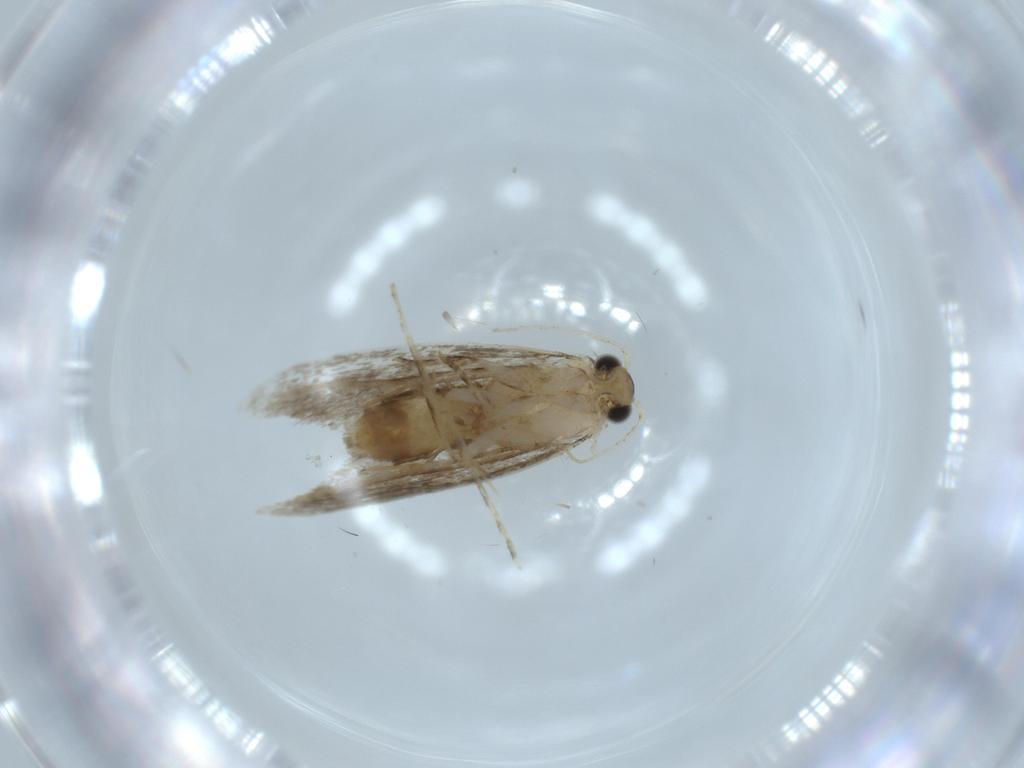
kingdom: Animalia
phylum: Arthropoda
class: Insecta
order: Lepidoptera
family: Tineidae
